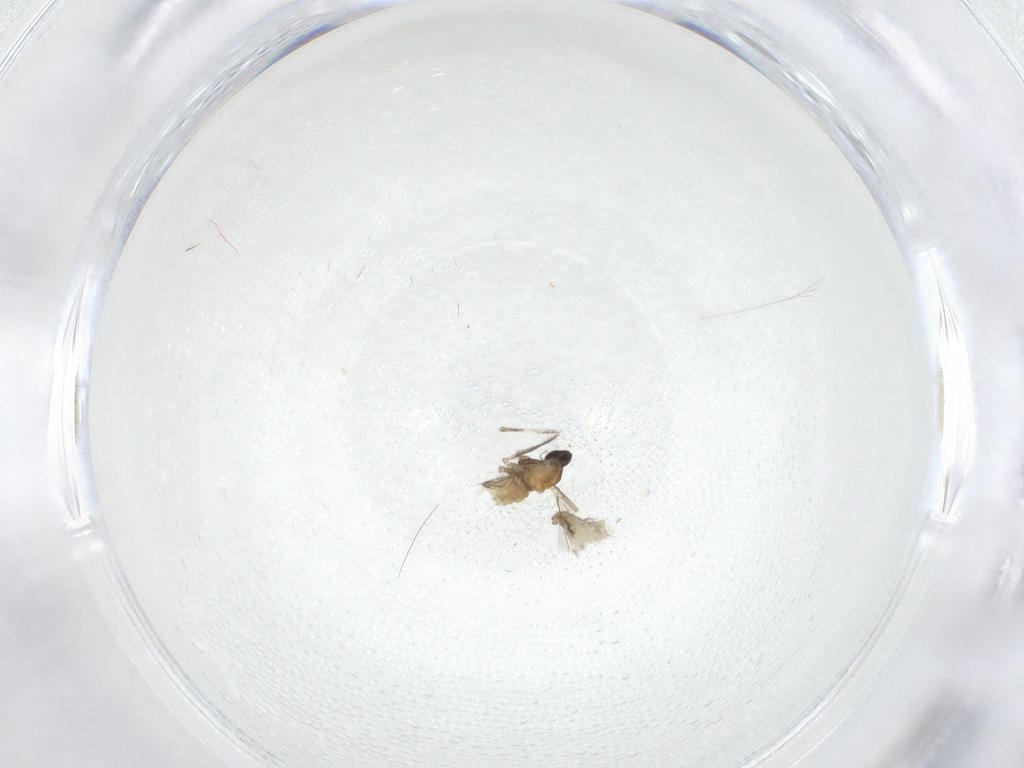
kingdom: Animalia
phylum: Arthropoda
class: Insecta
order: Diptera
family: Cecidomyiidae
